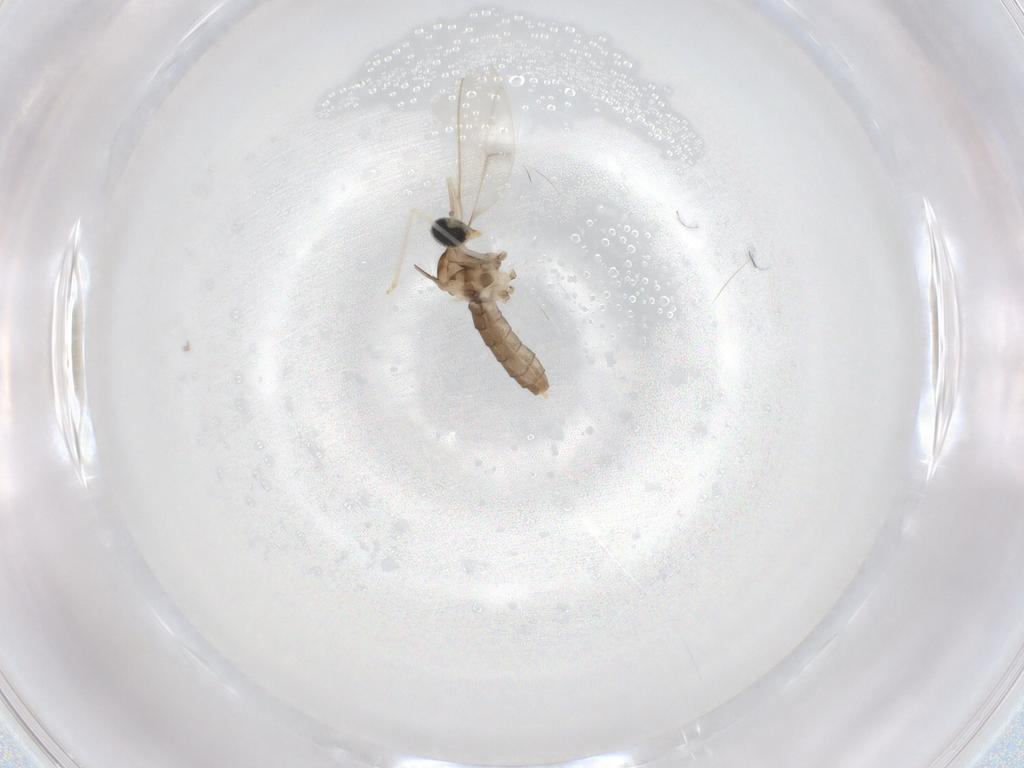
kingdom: Animalia
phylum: Arthropoda
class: Insecta
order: Diptera
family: Cecidomyiidae
